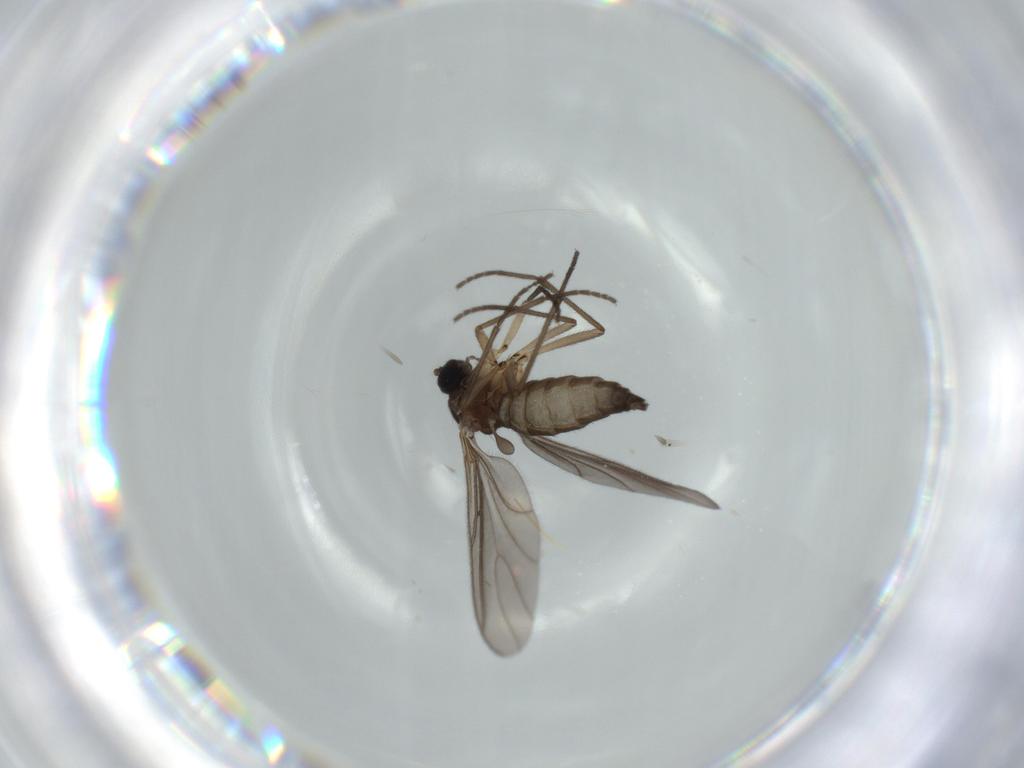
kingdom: Animalia
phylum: Arthropoda
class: Insecta
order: Diptera
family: Sciaridae
